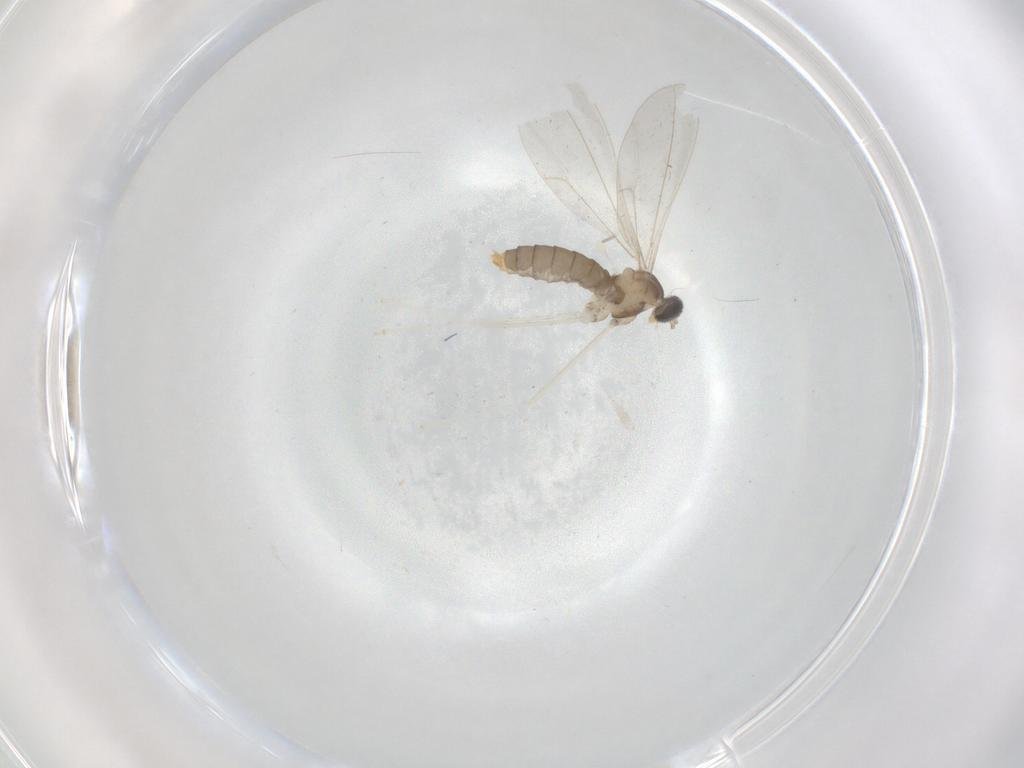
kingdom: Animalia
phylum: Arthropoda
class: Insecta
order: Diptera
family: Cecidomyiidae
